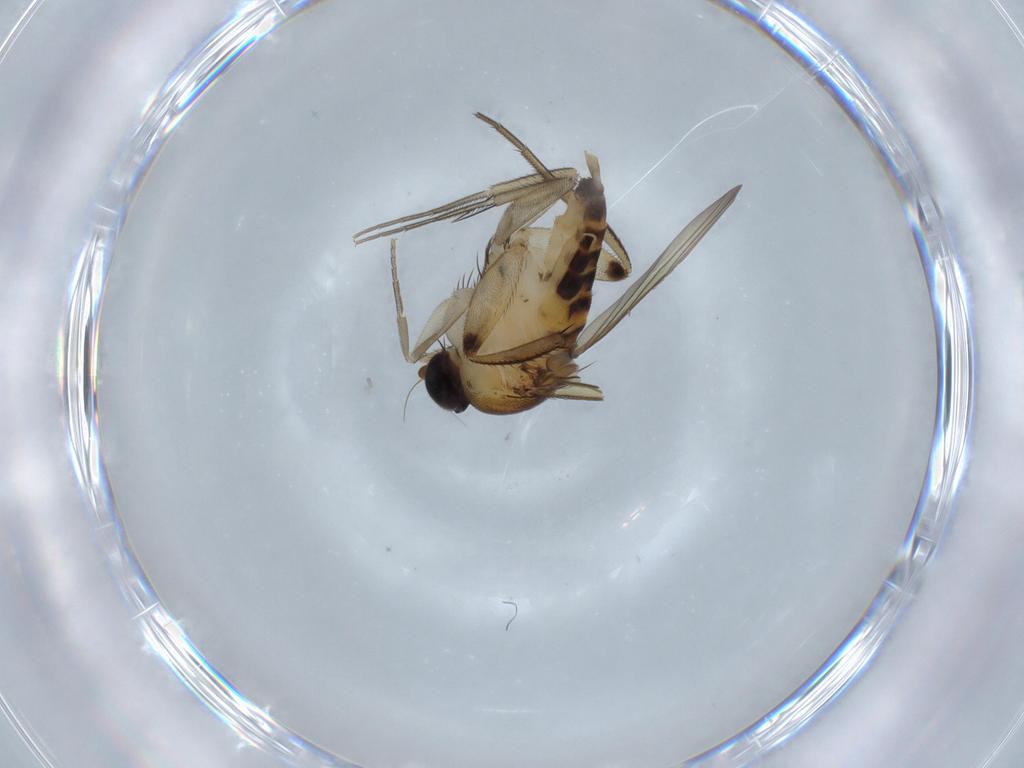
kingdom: Animalia
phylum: Arthropoda
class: Insecta
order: Diptera
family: Phoridae
